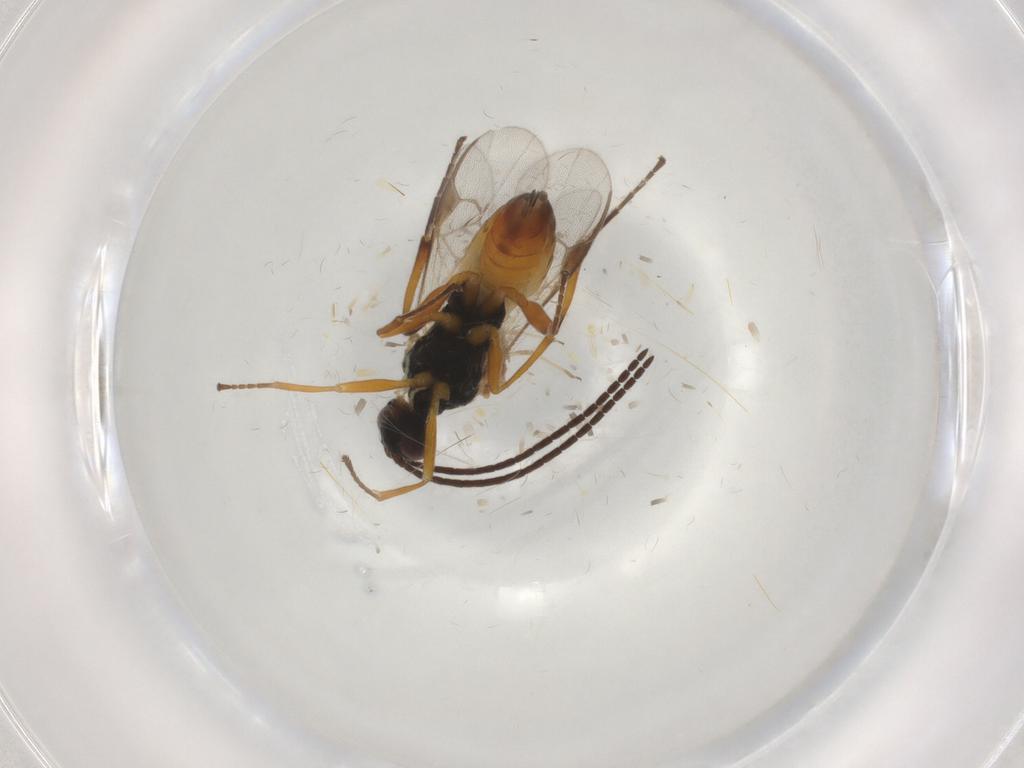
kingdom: Animalia
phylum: Arthropoda
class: Insecta
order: Hymenoptera
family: Braconidae
